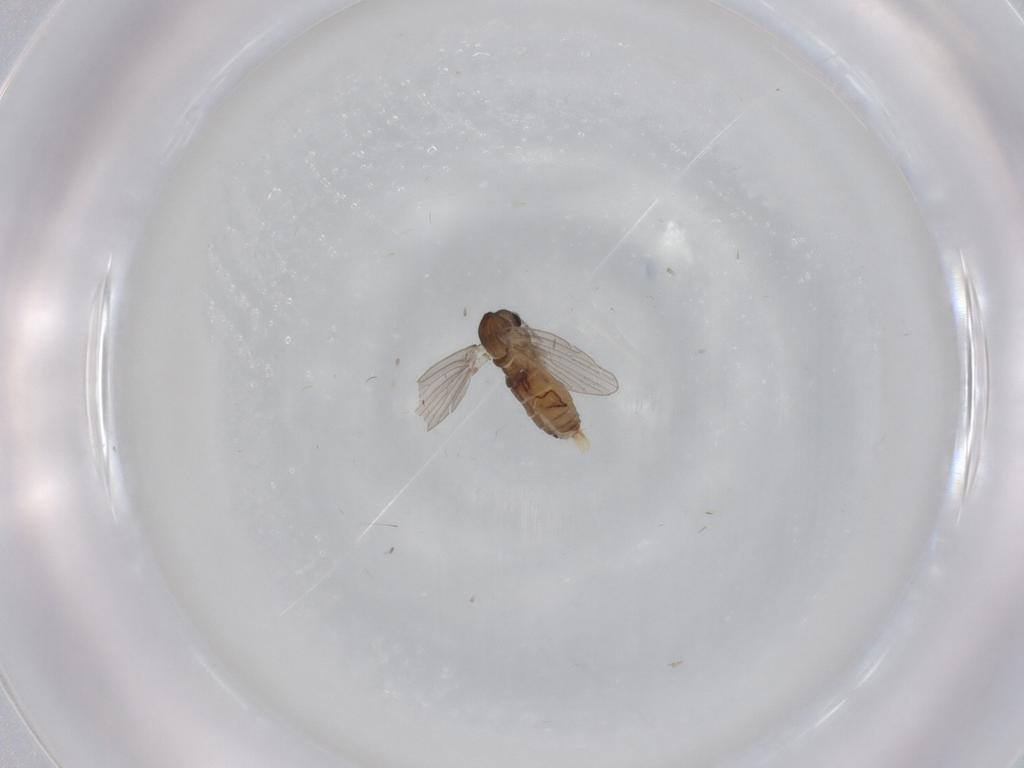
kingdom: Animalia
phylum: Arthropoda
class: Insecta
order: Diptera
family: Psychodidae
